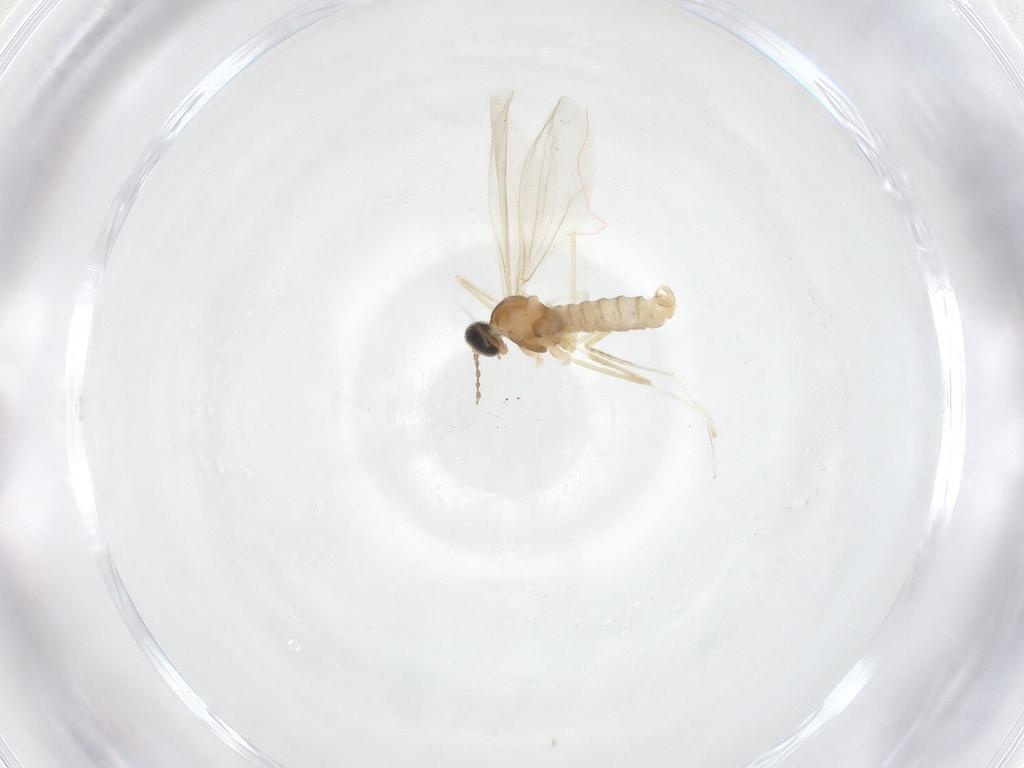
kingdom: Animalia
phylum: Arthropoda
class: Insecta
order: Diptera
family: Cecidomyiidae
